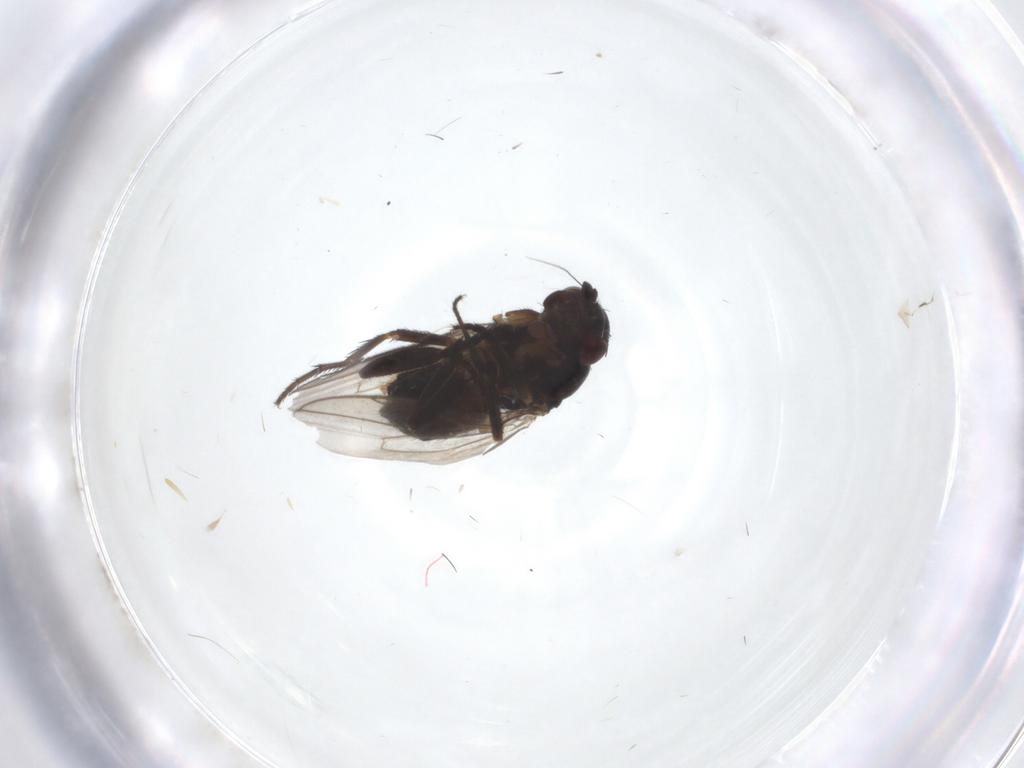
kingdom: Animalia
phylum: Arthropoda
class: Insecta
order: Diptera
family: Sphaeroceridae
